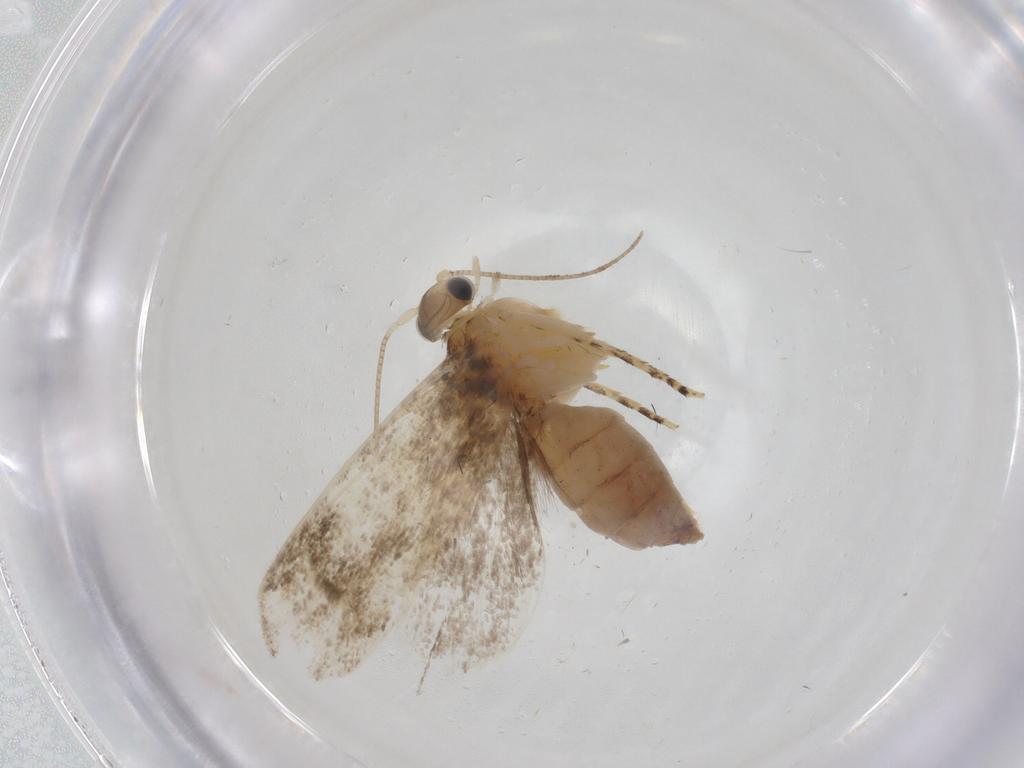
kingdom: Animalia
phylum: Arthropoda
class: Insecta
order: Lepidoptera
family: Tineidae
